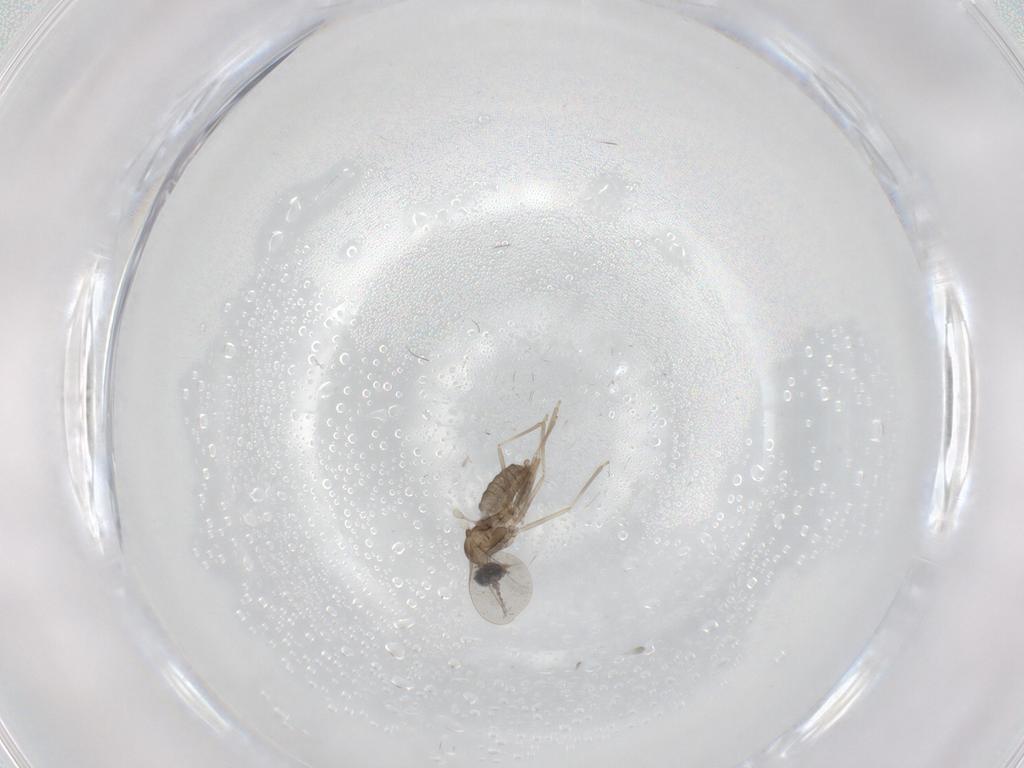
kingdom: Animalia
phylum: Arthropoda
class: Insecta
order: Diptera
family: Cecidomyiidae
